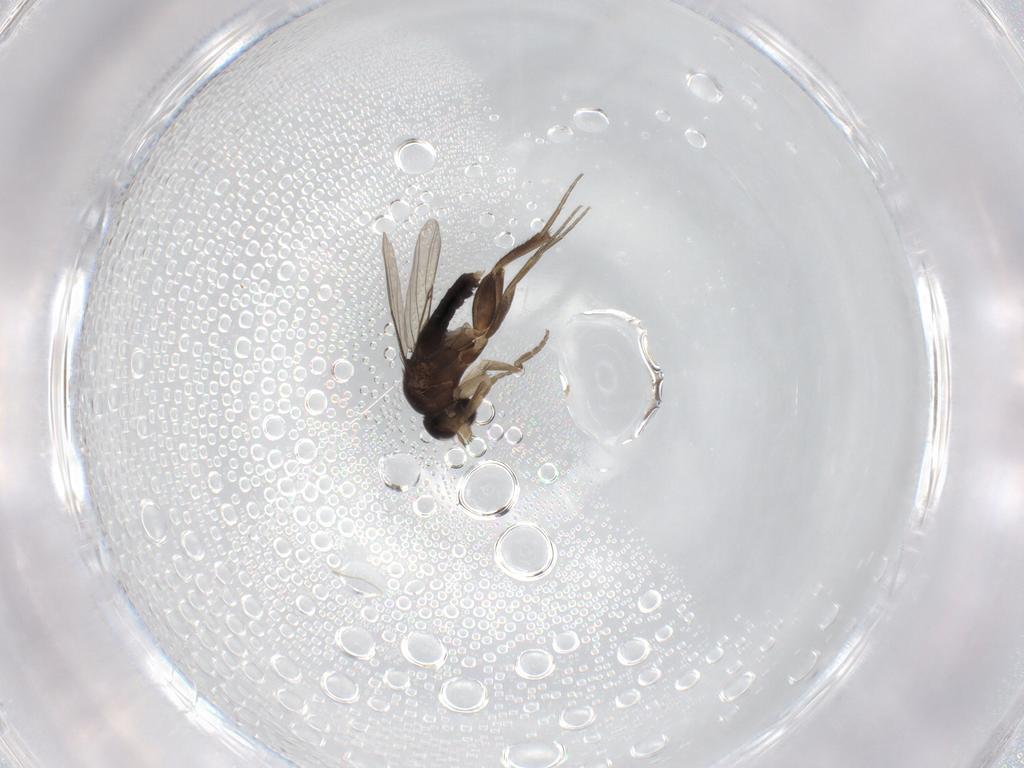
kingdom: Animalia
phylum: Arthropoda
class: Insecta
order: Diptera
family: Phoridae
